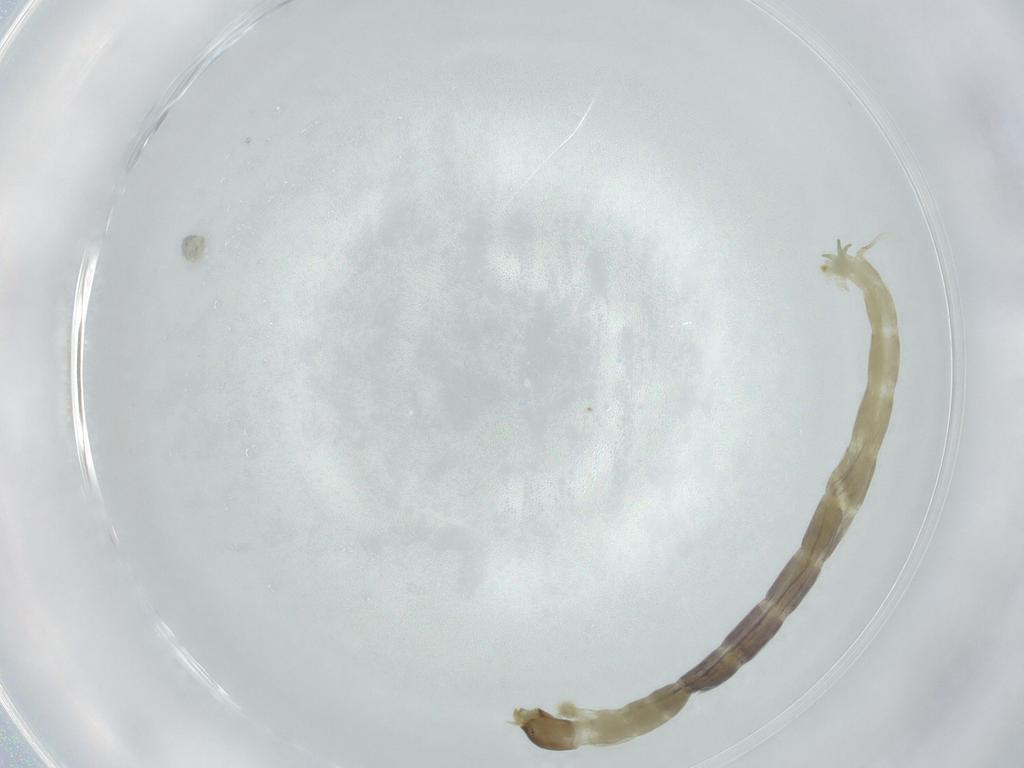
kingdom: Animalia
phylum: Arthropoda
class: Insecta
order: Diptera
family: Chironomidae
